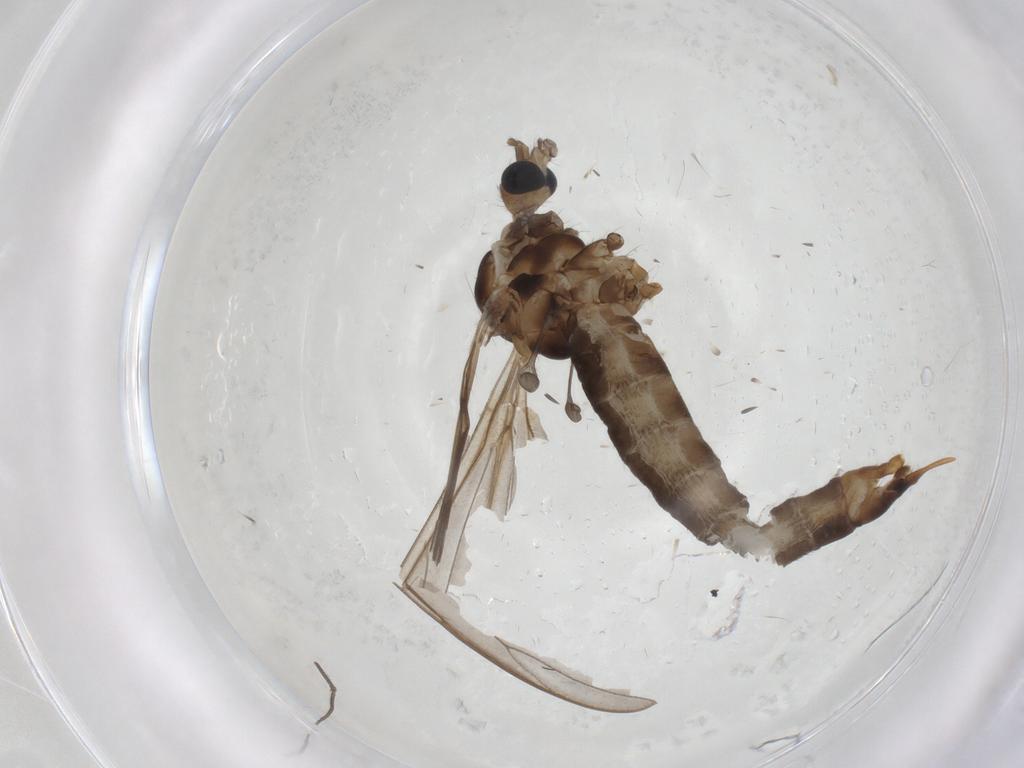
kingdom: Animalia
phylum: Arthropoda
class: Insecta
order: Diptera
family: Limoniidae
